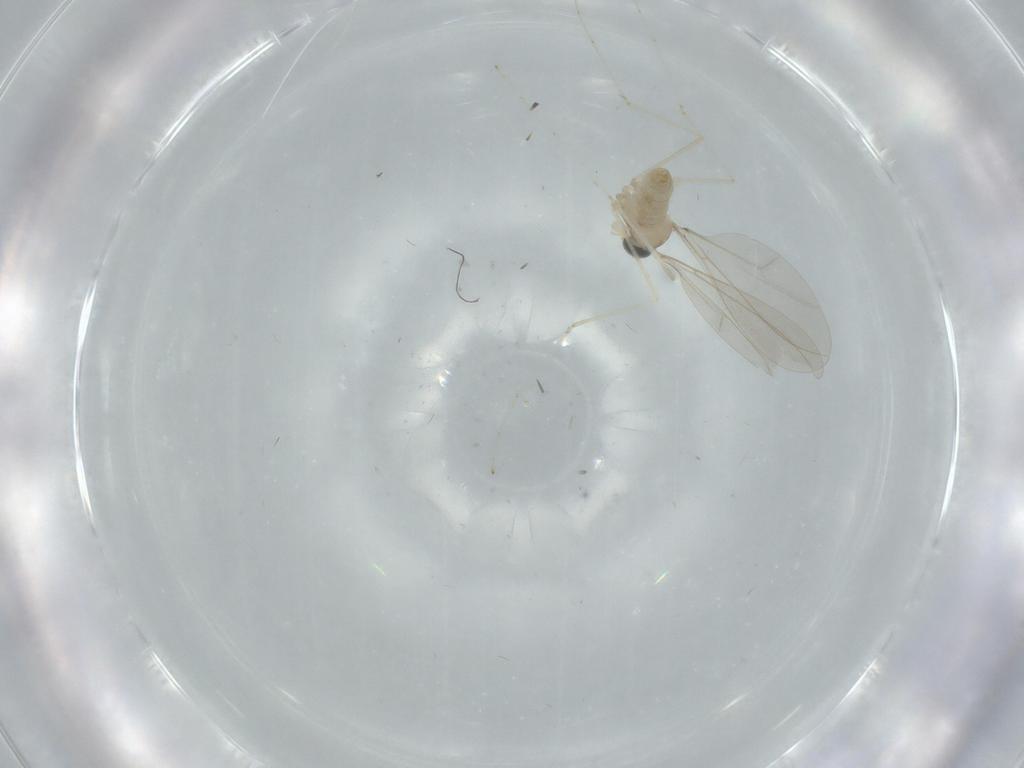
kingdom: Animalia
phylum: Arthropoda
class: Insecta
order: Diptera
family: Cecidomyiidae
